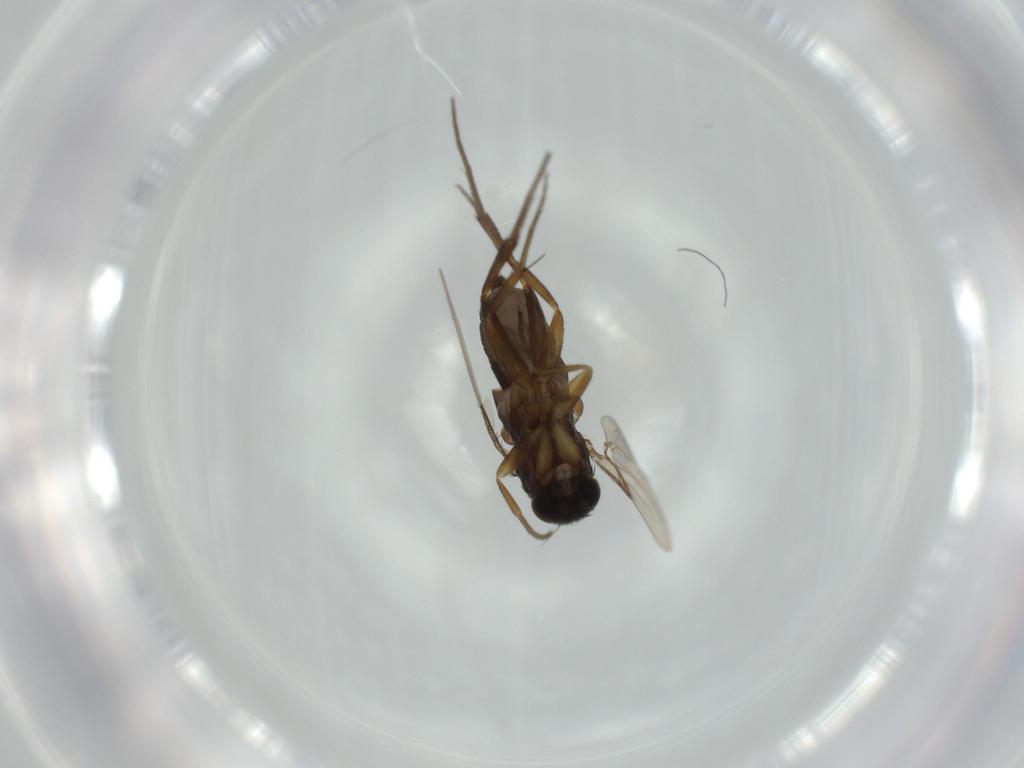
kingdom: Animalia
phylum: Arthropoda
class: Insecta
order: Diptera
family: Phoridae
